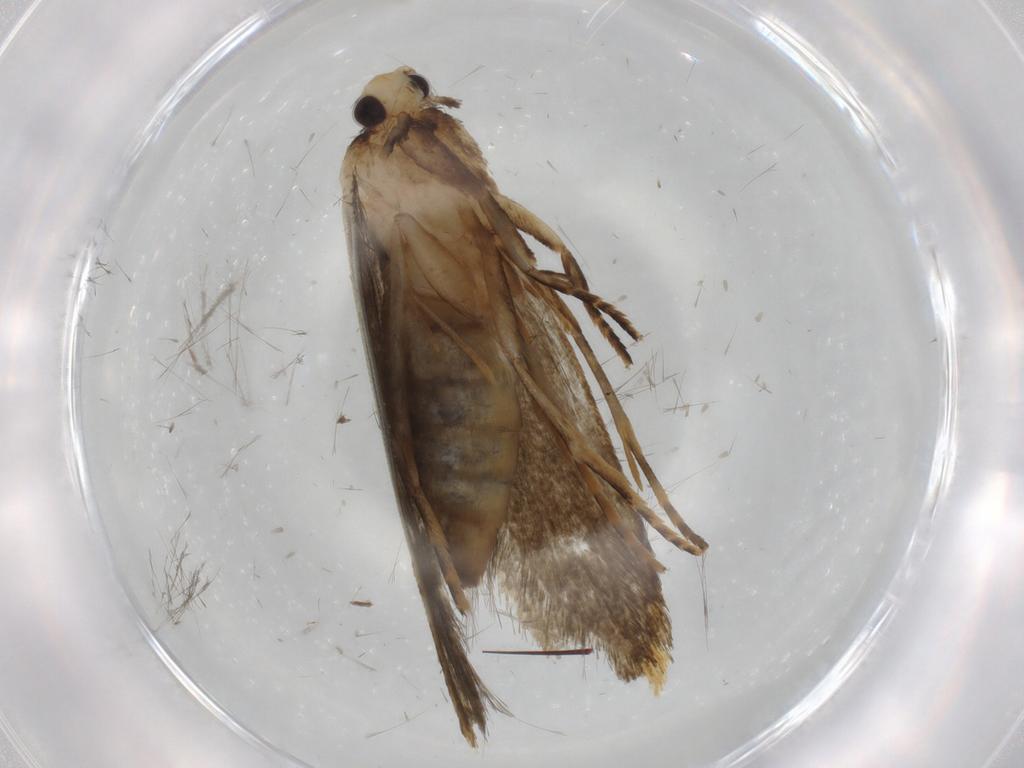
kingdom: Animalia
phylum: Arthropoda
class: Insecta
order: Lepidoptera
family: Tineidae
